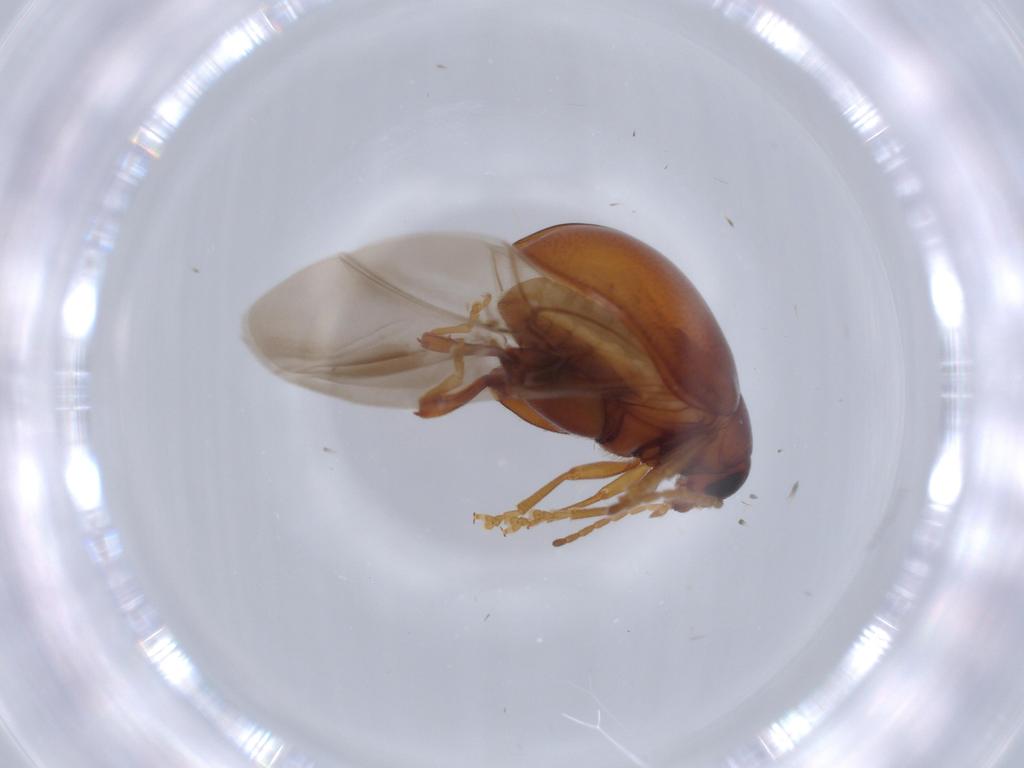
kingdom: Animalia
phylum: Arthropoda
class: Insecta
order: Coleoptera
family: Chrysomelidae
